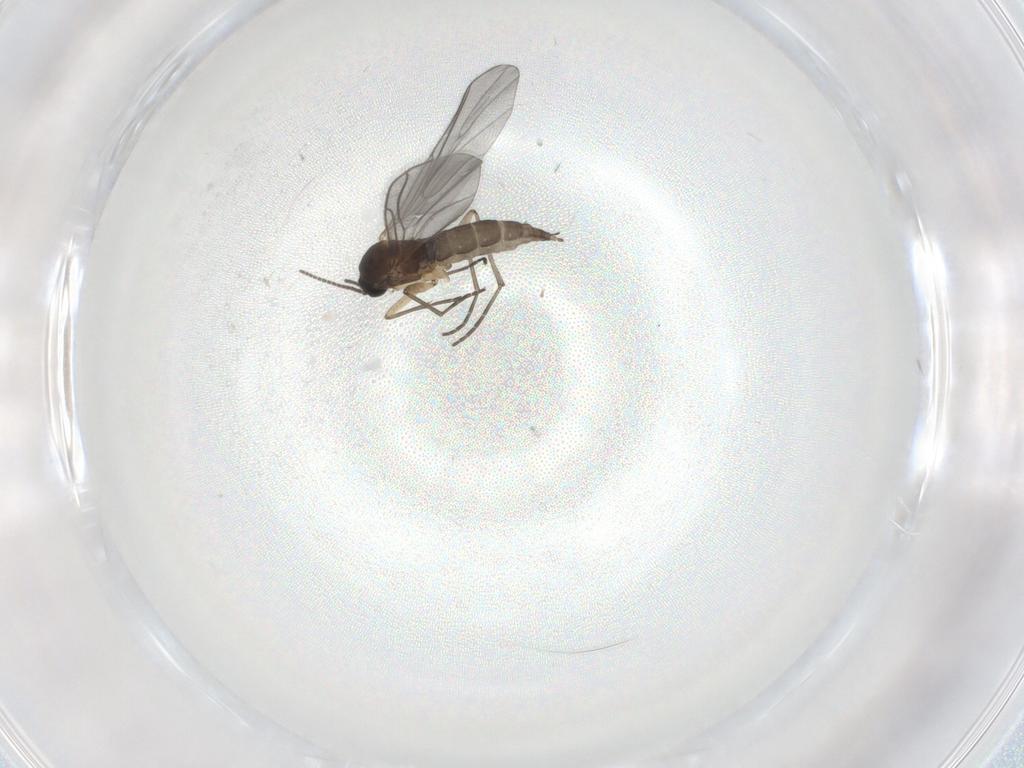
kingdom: Animalia
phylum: Arthropoda
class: Insecta
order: Diptera
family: Sciaridae
